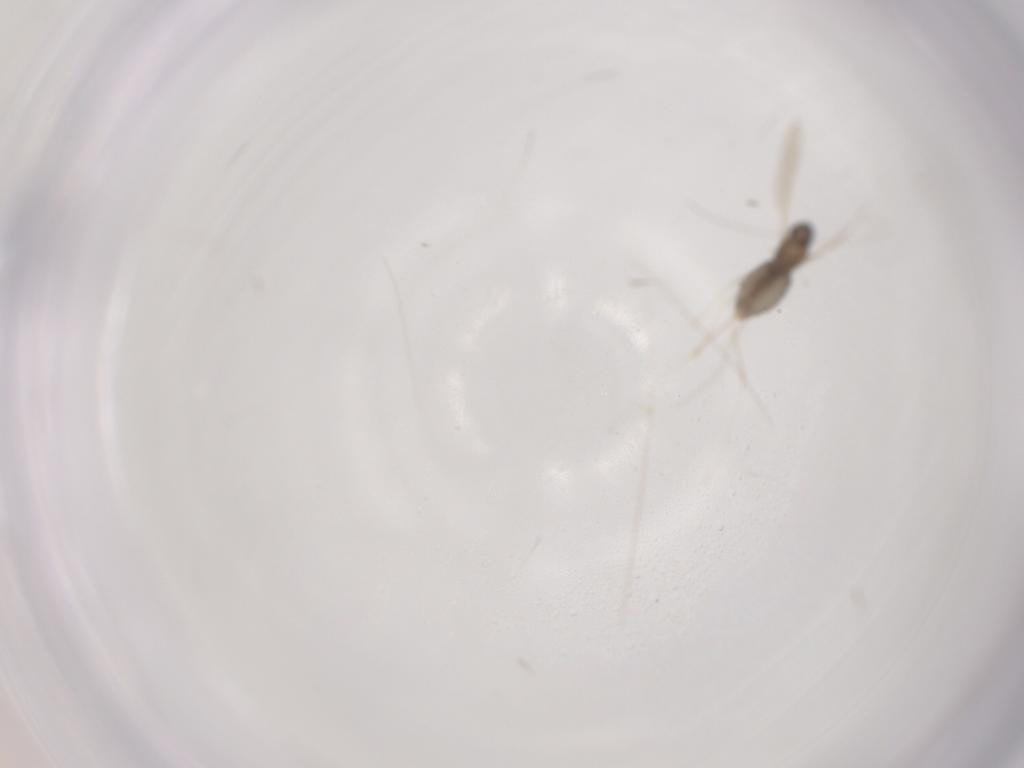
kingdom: Animalia
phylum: Arthropoda
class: Insecta
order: Diptera
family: Cecidomyiidae
